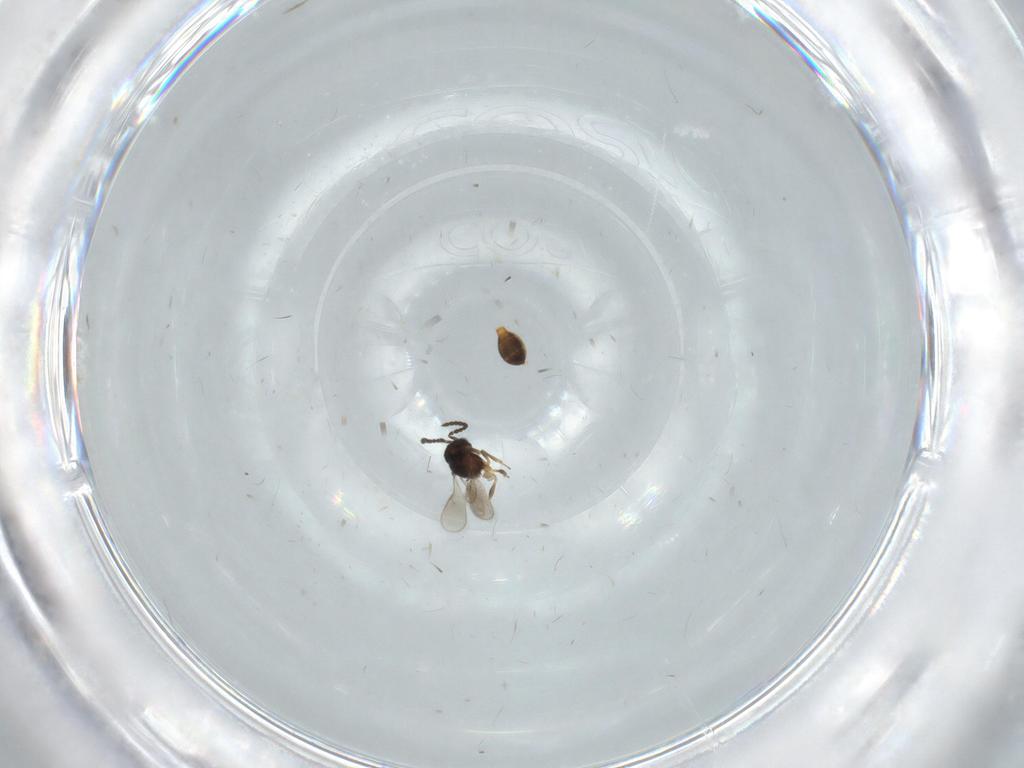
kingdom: Animalia
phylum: Arthropoda
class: Insecta
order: Hymenoptera
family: Scelionidae
